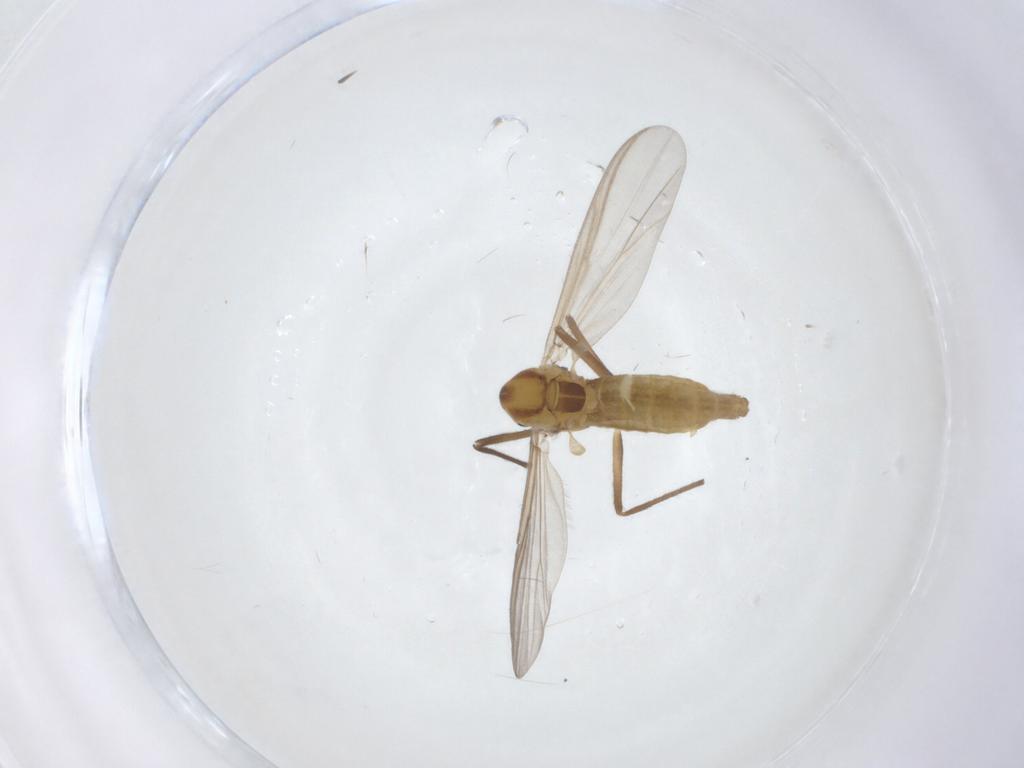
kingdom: Animalia
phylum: Arthropoda
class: Insecta
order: Diptera
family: Chironomidae
